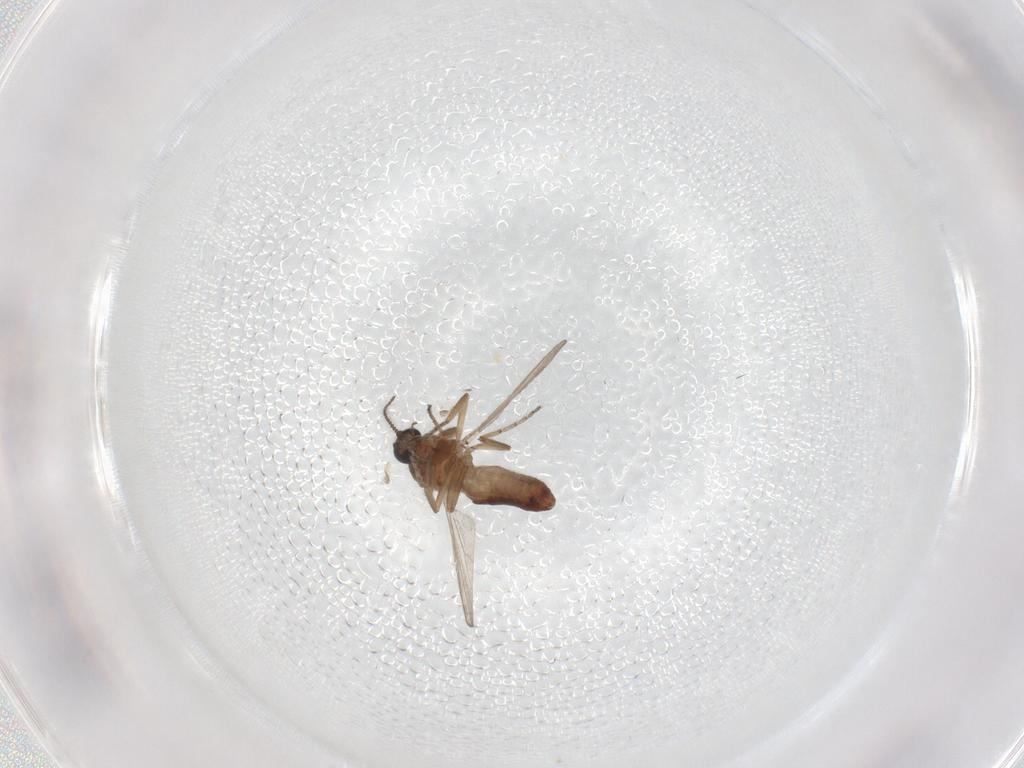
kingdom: Animalia
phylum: Arthropoda
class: Insecta
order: Diptera
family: Ceratopogonidae
